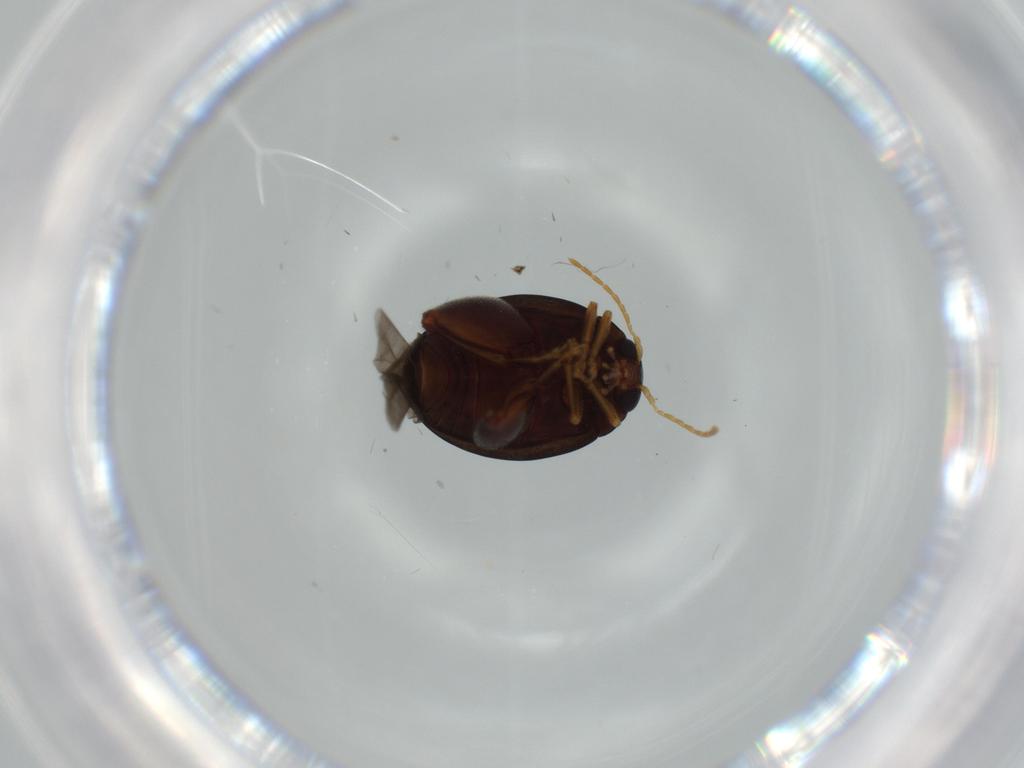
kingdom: Animalia
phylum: Arthropoda
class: Insecta
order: Coleoptera
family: Chrysomelidae
